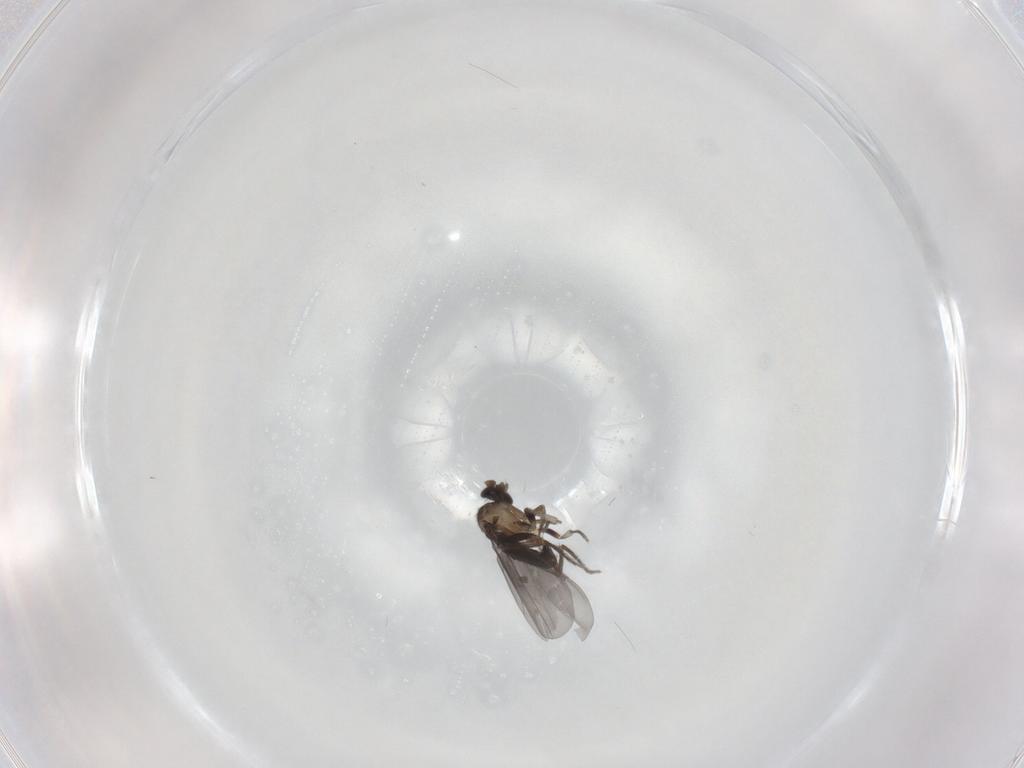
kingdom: Animalia
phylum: Arthropoda
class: Insecta
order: Diptera
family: Phoridae
